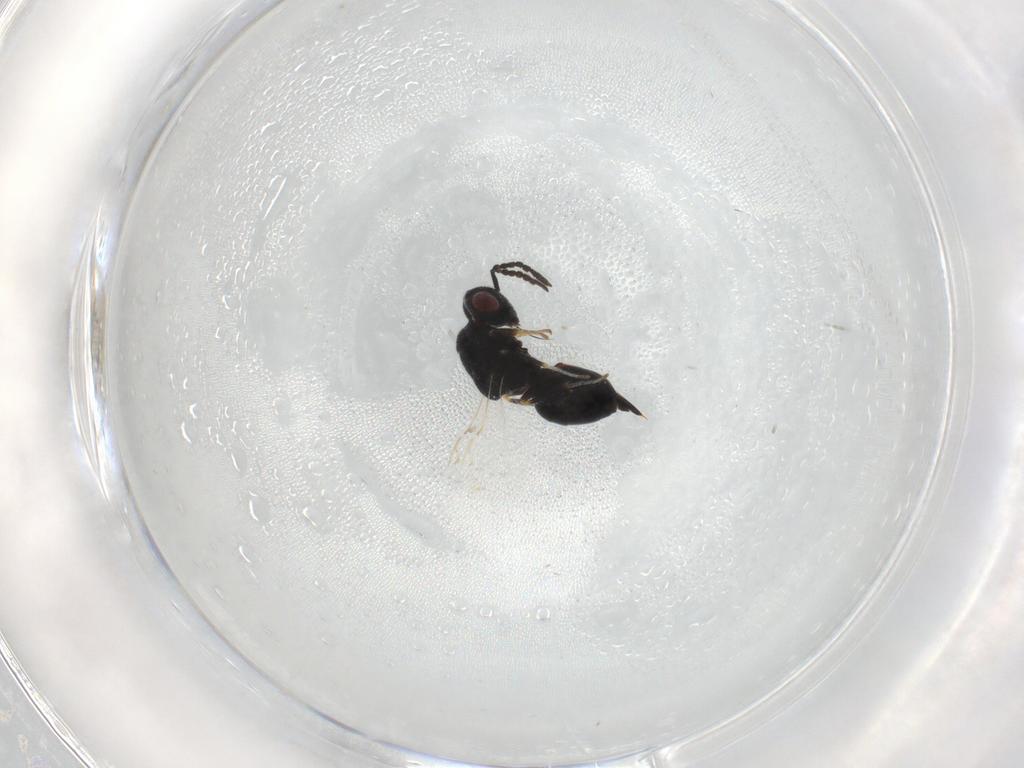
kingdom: Animalia
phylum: Arthropoda
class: Insecta
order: Hymenoptera
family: Eurytomidae
